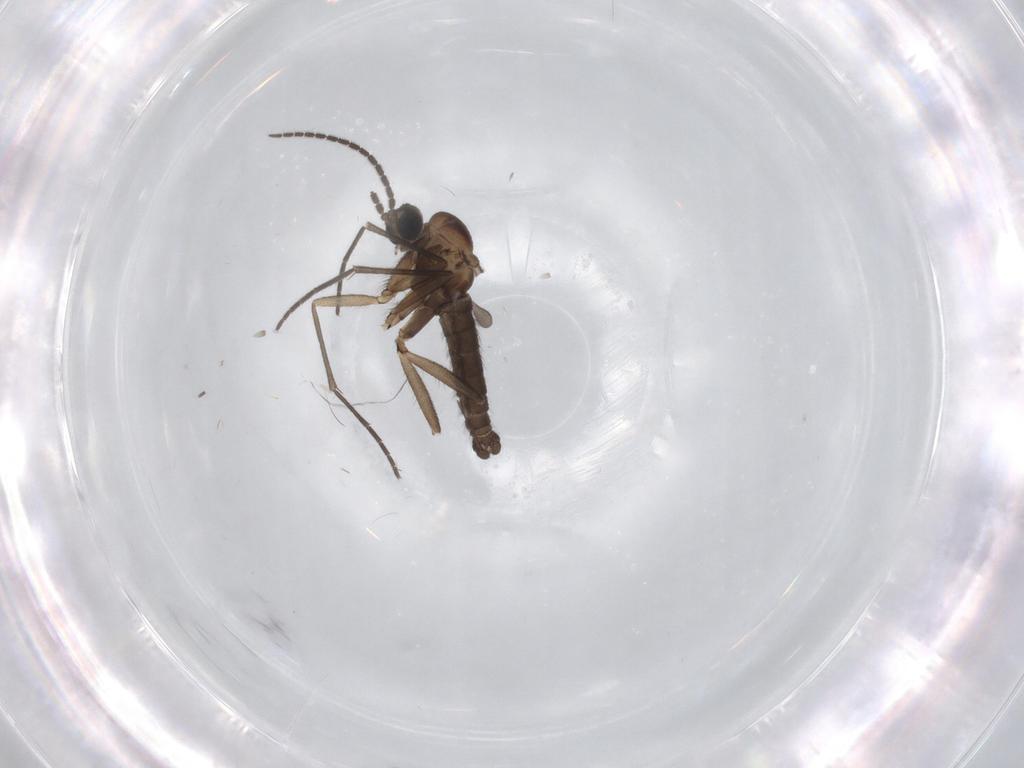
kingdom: Animalia
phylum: Arthropoda
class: Insecta
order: Diptera
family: Sciaridae
